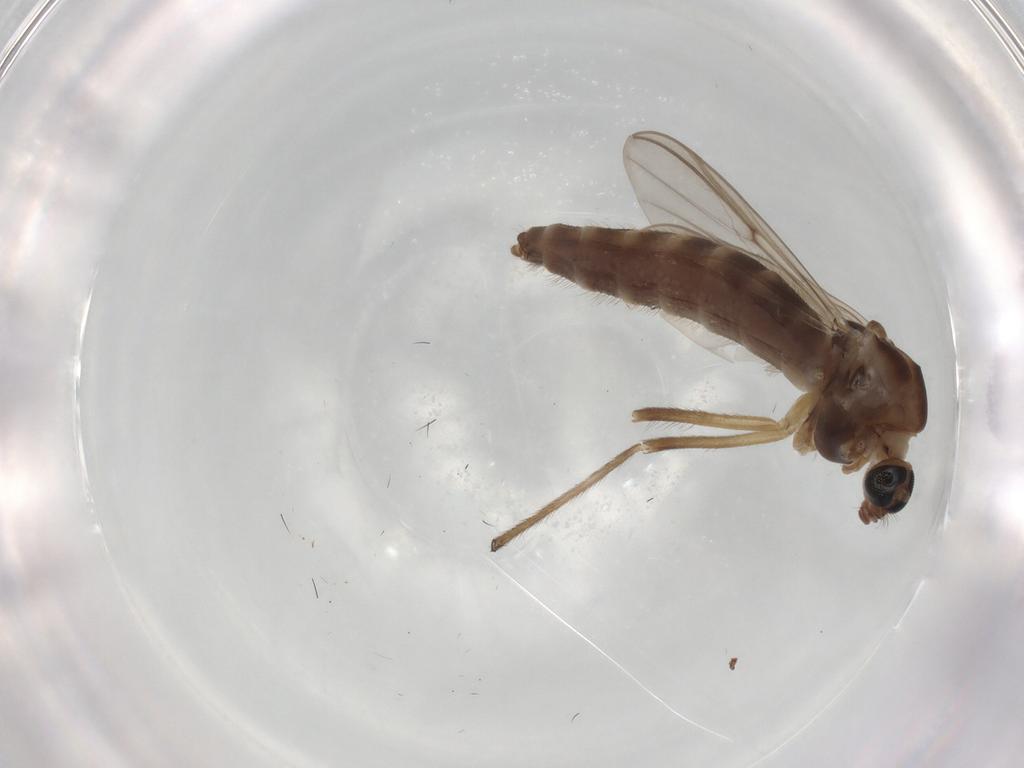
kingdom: Animalia
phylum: Arthropoda
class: Insecta
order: Diptera
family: Chironomidae
